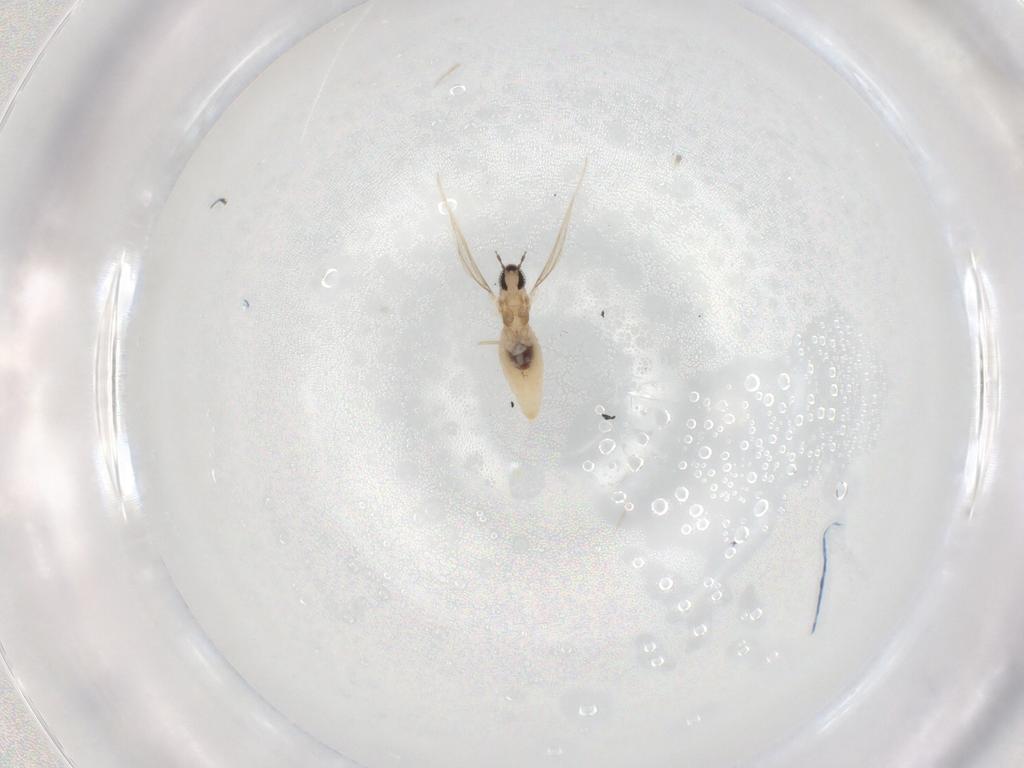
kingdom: Animalia
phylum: Arthropoda
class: Insecta
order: Diptera
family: Cecidomyiidae
